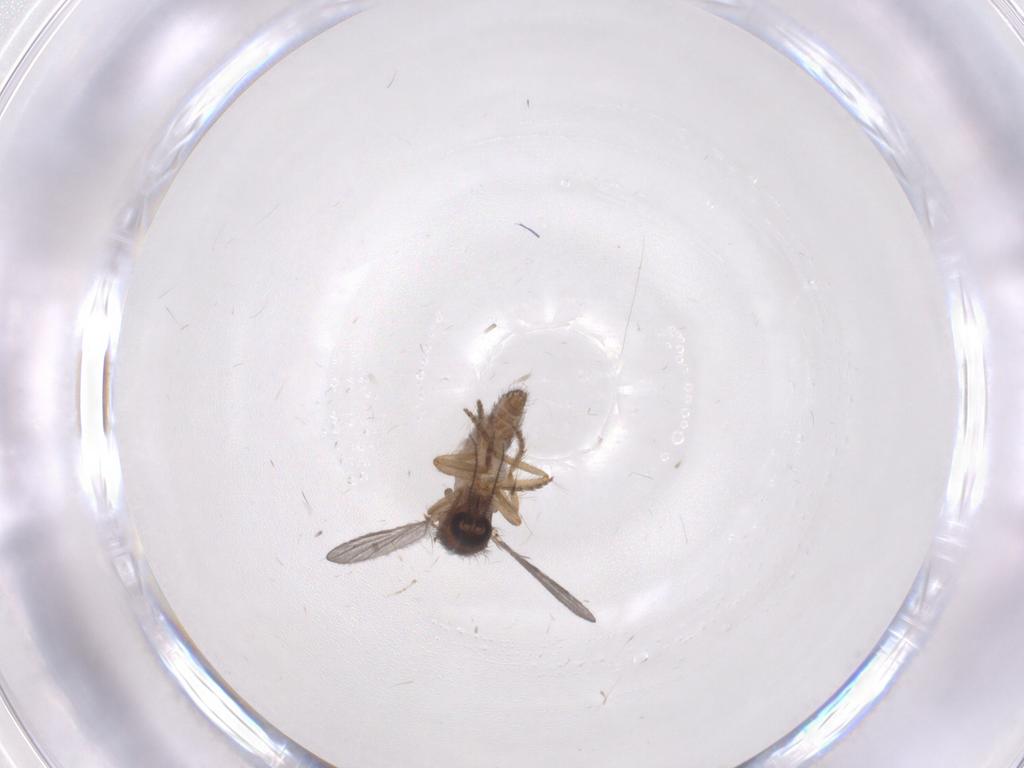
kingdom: Animalia
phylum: Arthropoda
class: Insecta
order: Diptera
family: Ceratopogonidae
